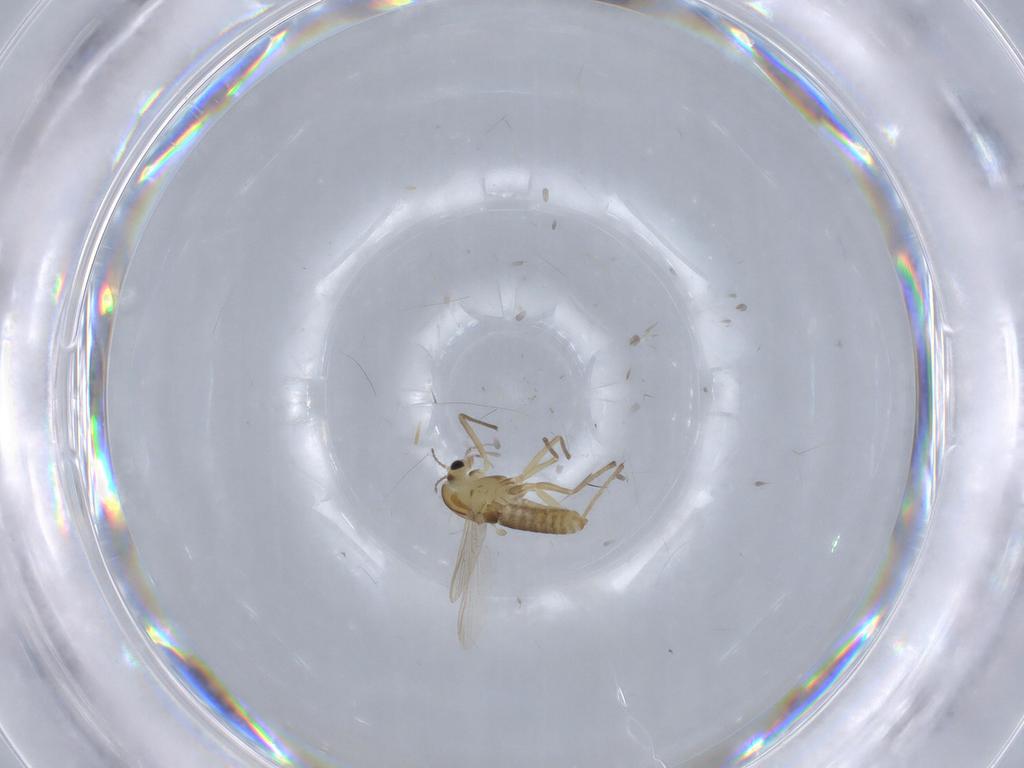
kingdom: Animalia
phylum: Arthropoda
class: Insecta
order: Diptera
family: Chironomidae
